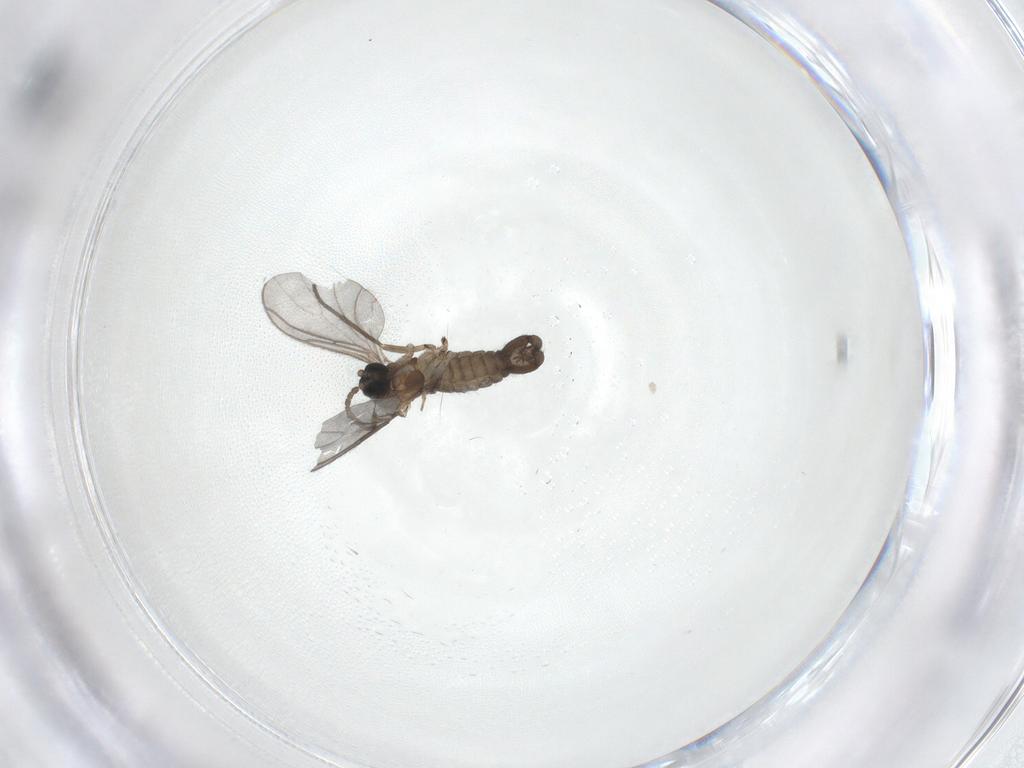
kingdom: Animalia
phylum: Arthropoda
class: Insecta
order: Diptera
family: Sciaridae
